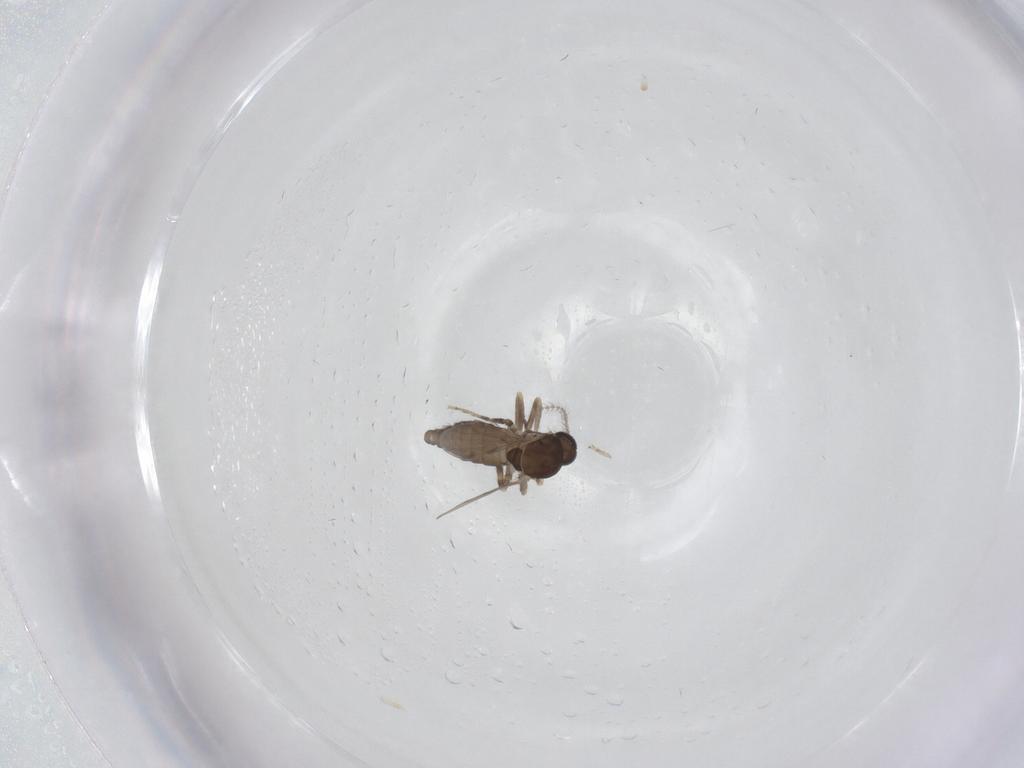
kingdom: Animalia
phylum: Arthropoda
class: Insecta
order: Diptera
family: Ceratopogonidae
